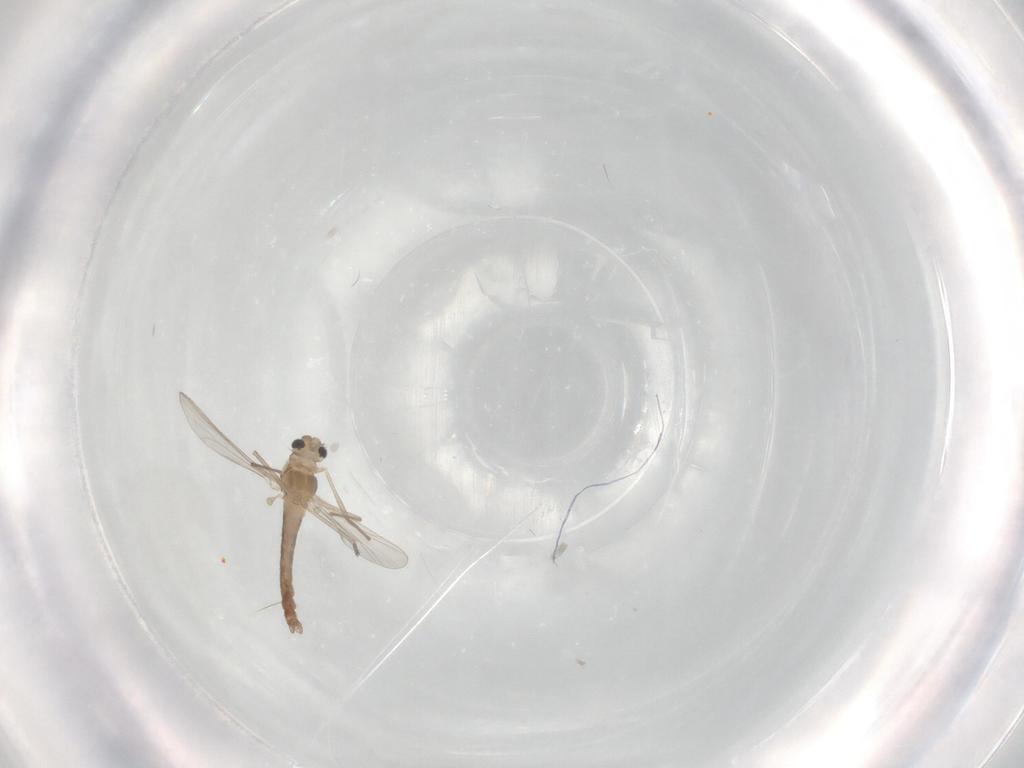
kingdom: Animalia
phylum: Arthropoda
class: Insecta
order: Diptera
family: Chironomidae
